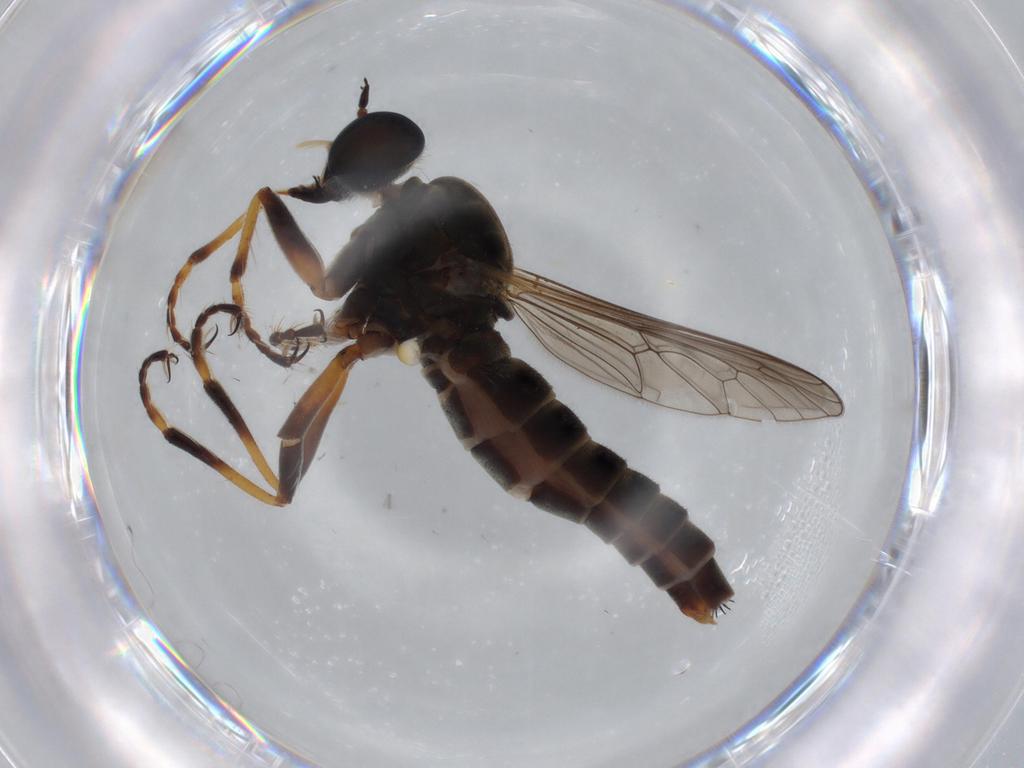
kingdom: Animalia
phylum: Arthropoda
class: Insecta
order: Diptera
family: Asilidae
